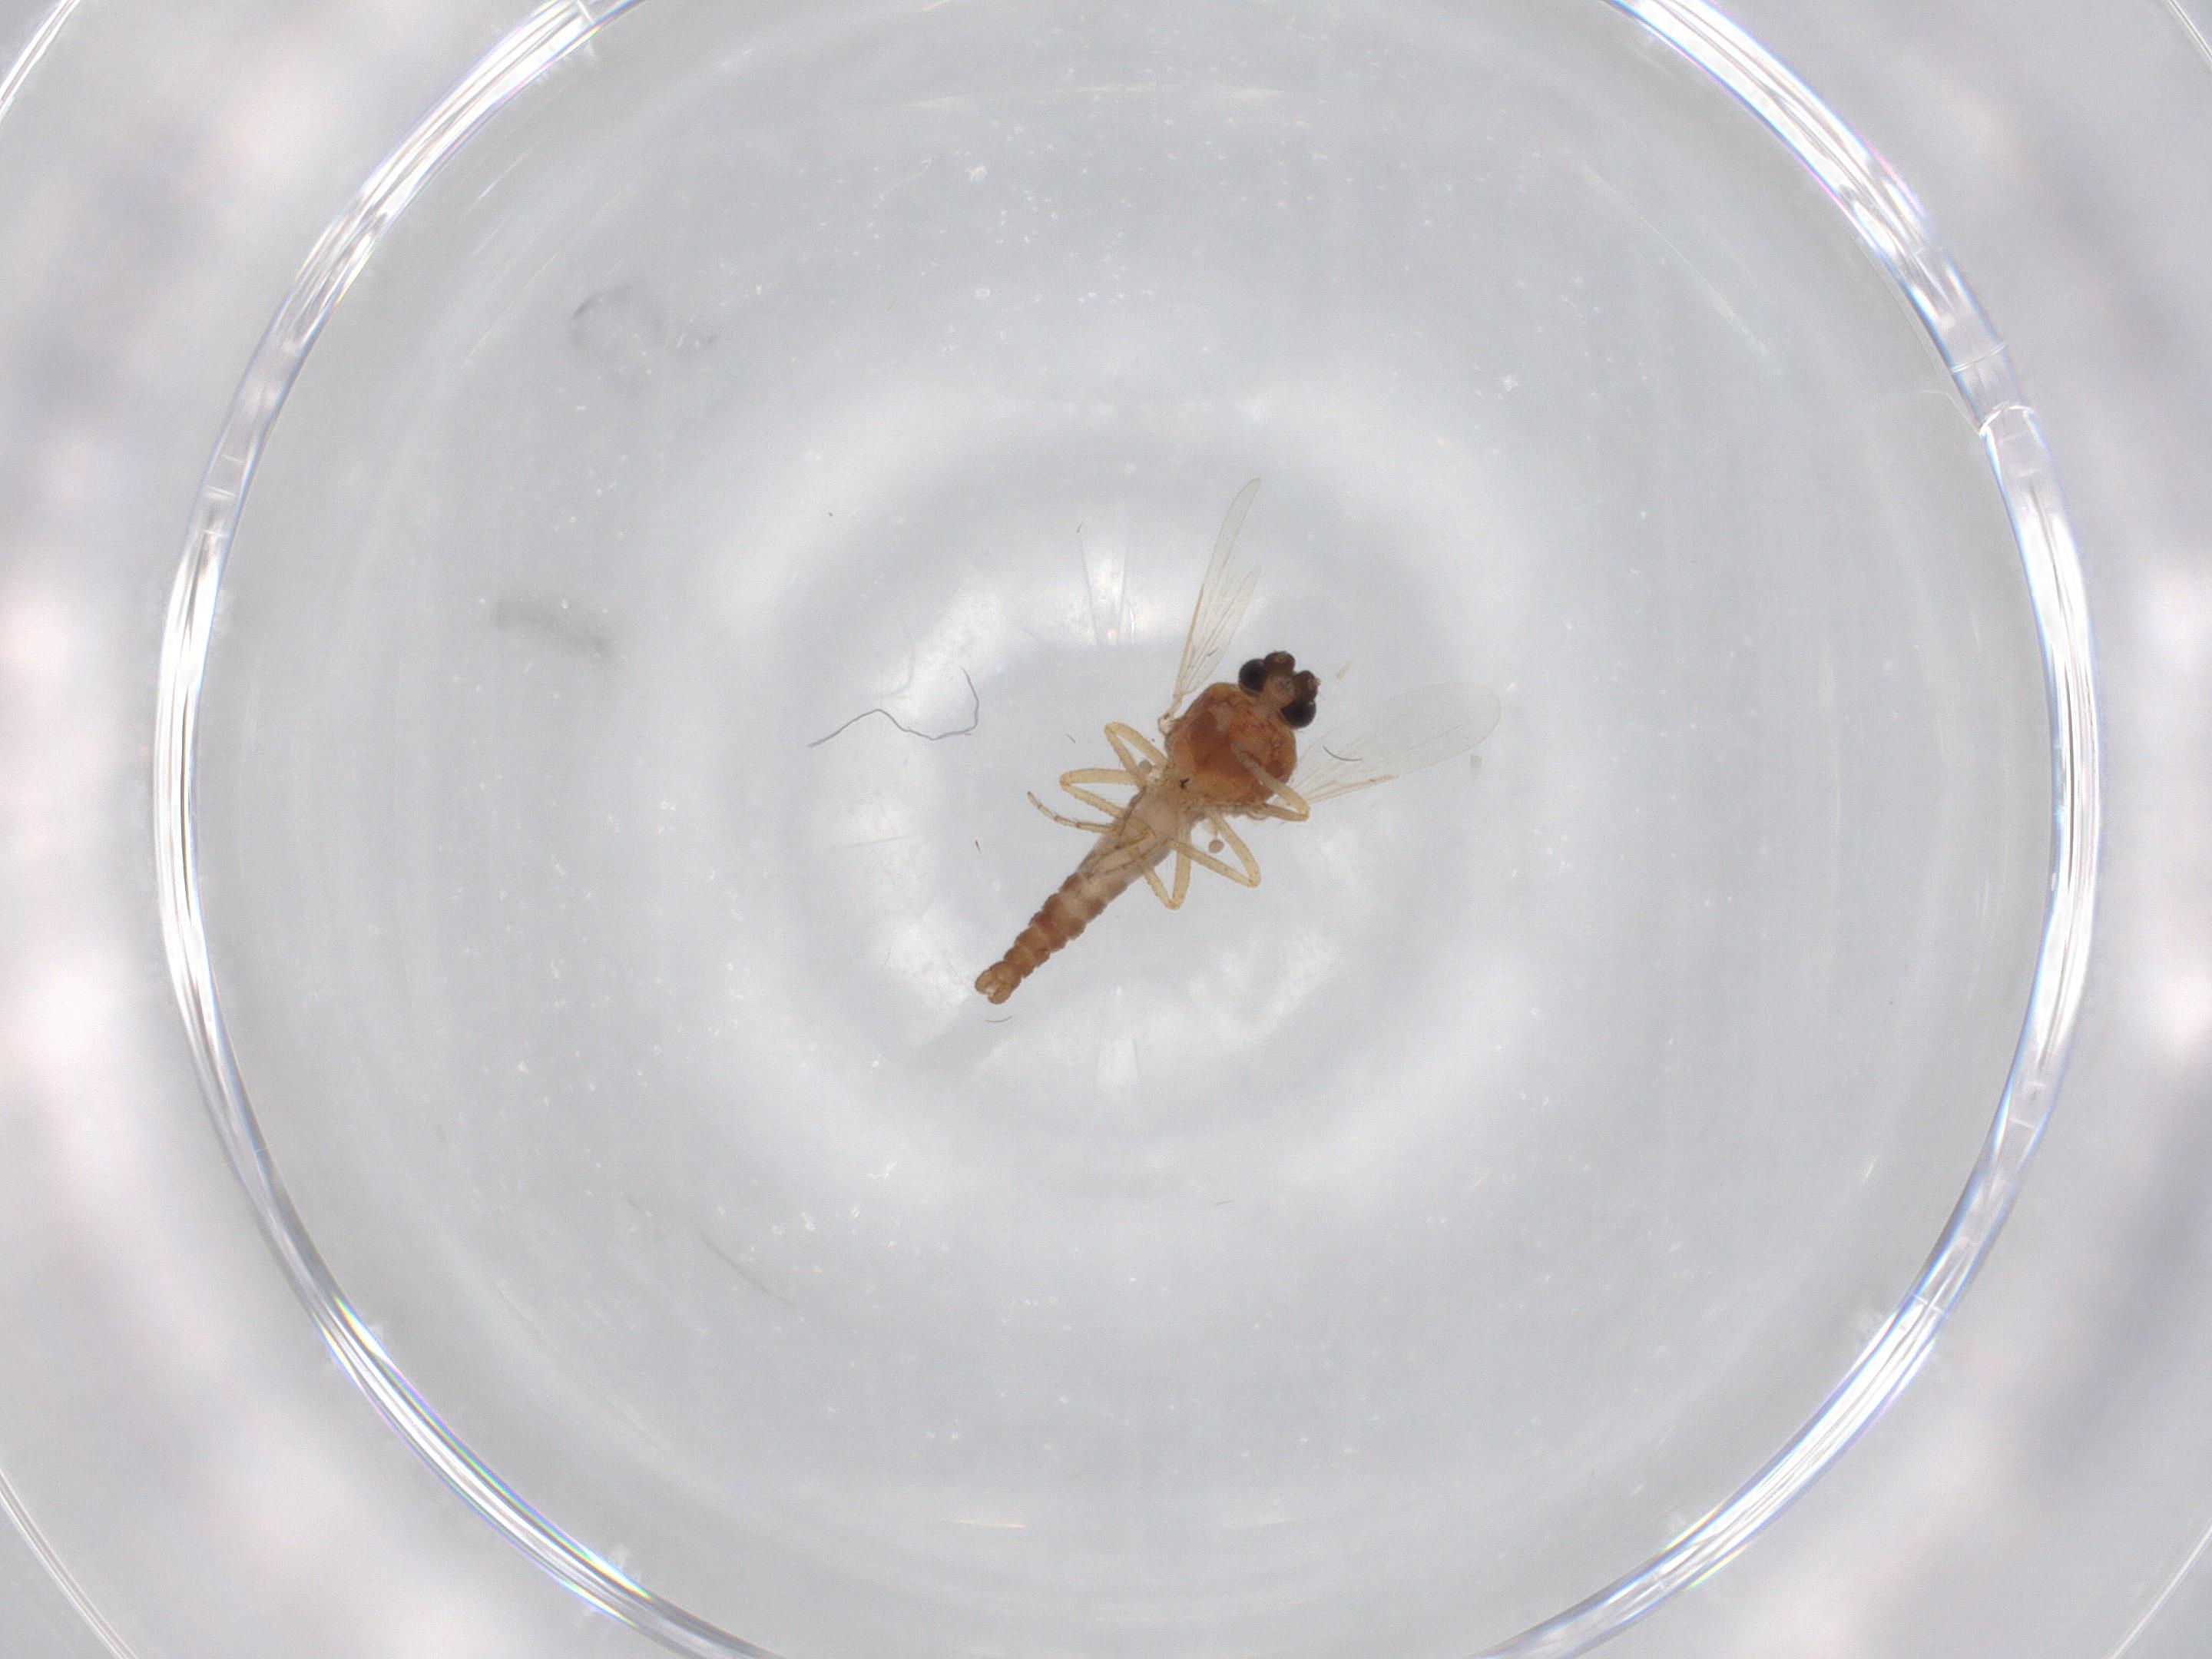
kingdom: Animalia
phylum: Arthropoda
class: Insecta
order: Diptera
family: Ceratopogonidae
